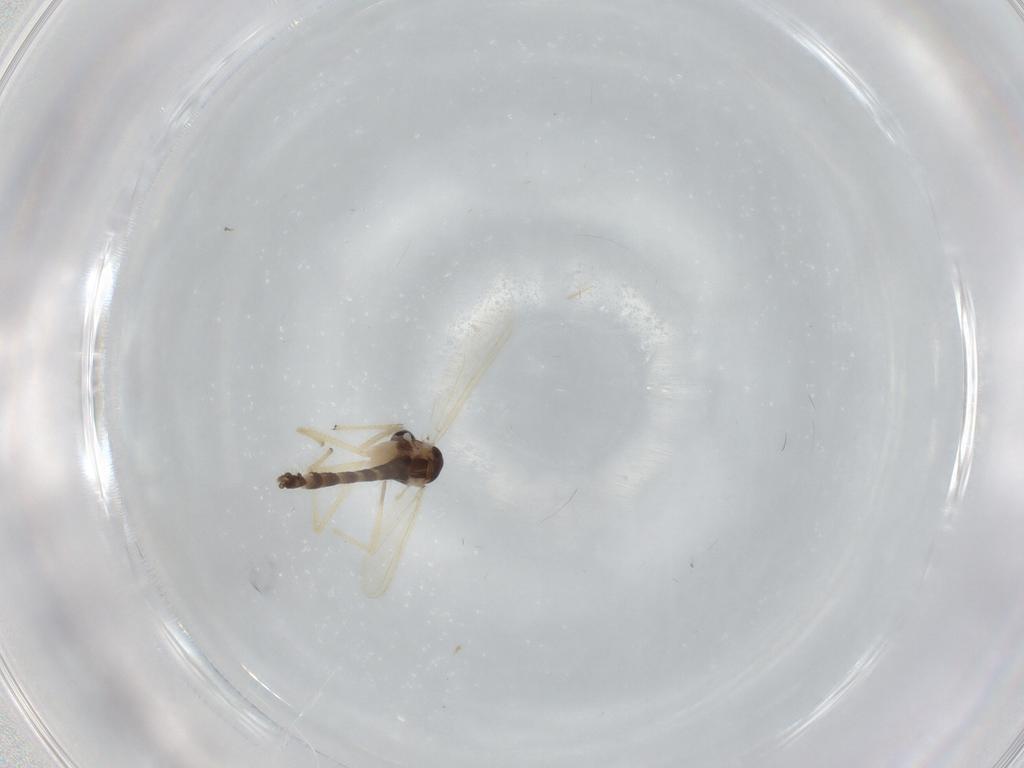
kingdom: Animalia
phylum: Arthropoda
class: Insecta
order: Diptera
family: Chironomidae
